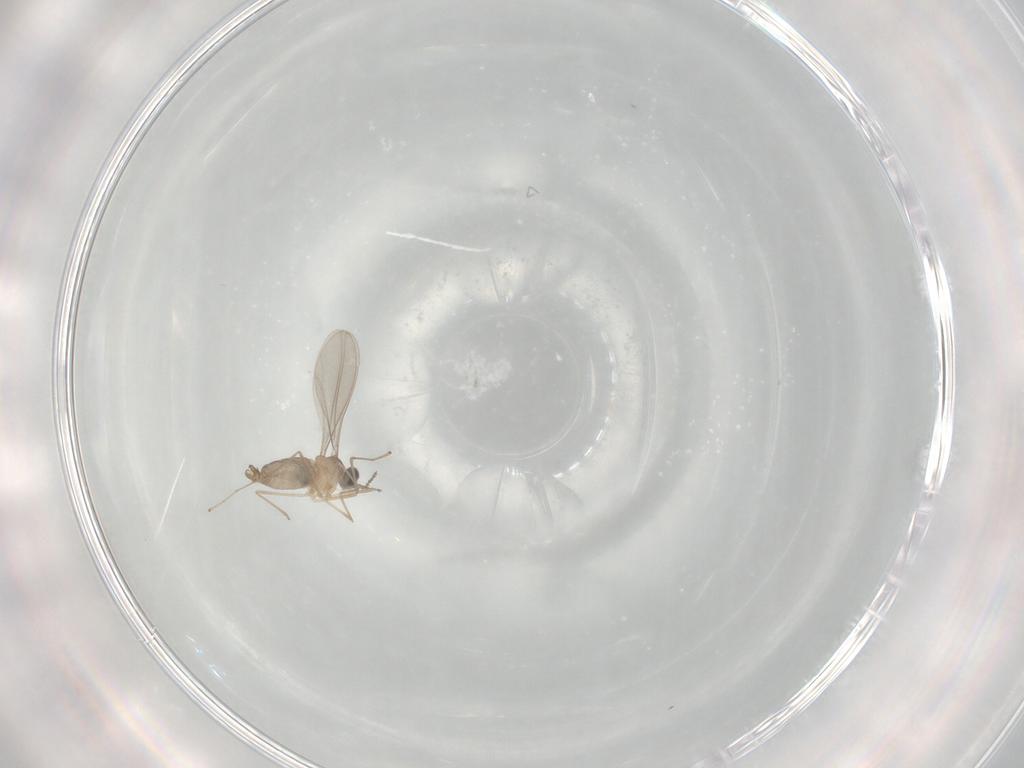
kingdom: Animalia
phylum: Arthropoda
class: Insecta
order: Diptera
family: Cecidomyiidae
